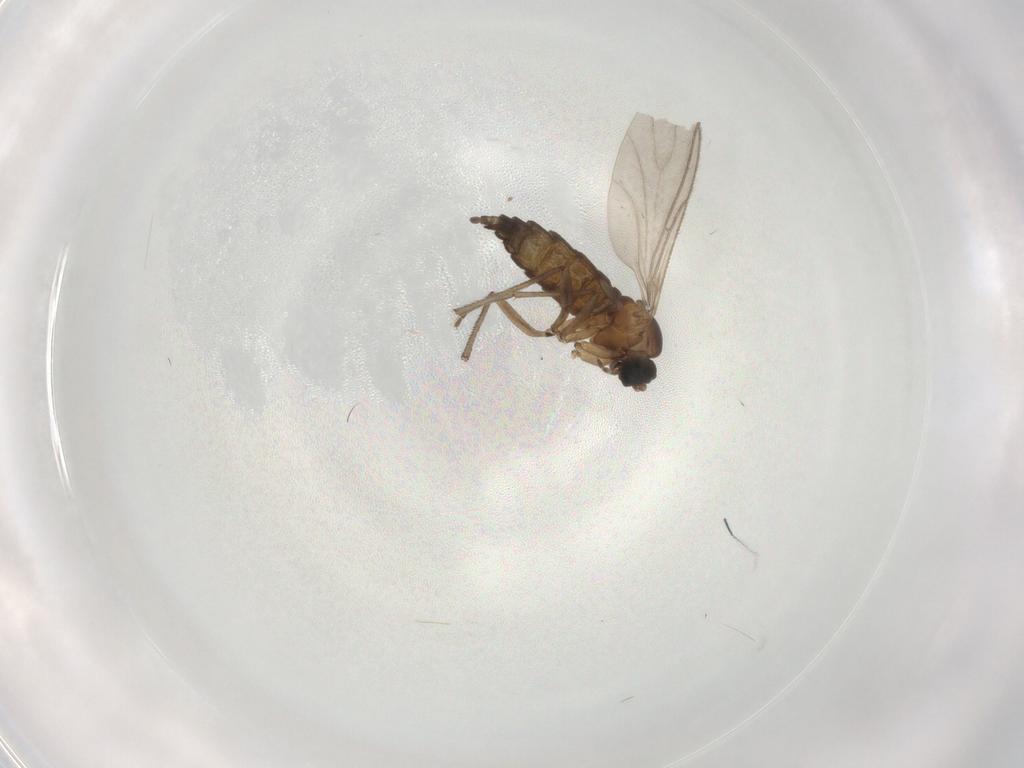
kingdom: Animalia
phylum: Arthropoda
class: Insecta
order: Diptera
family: Sciaridae
